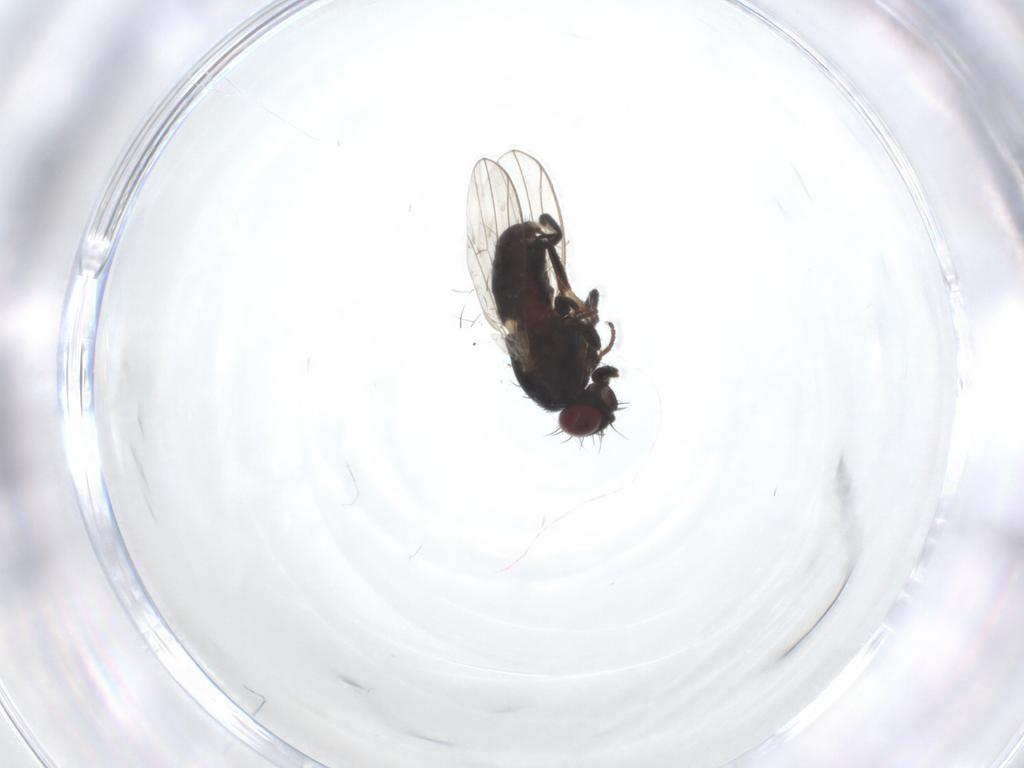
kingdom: Animalia
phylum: Arthropoda
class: Insecta
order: Diptera
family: Carnidae
